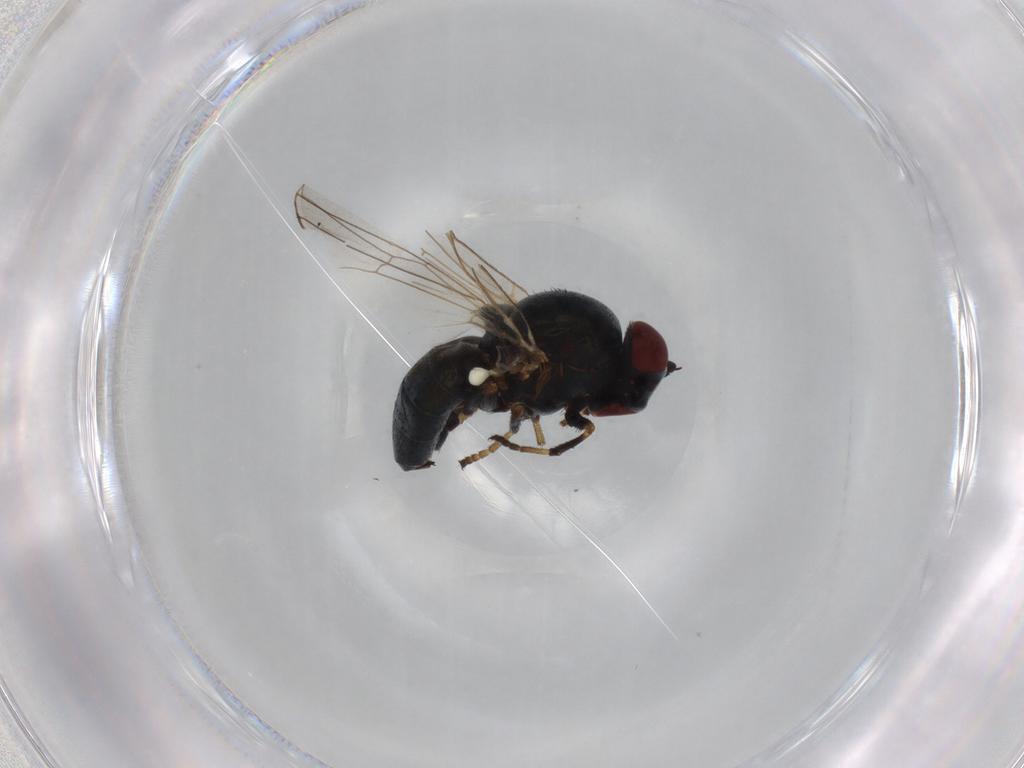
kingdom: Animalia
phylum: Arthropoda
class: Insecta
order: Diptera
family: Chamaemyiidae
